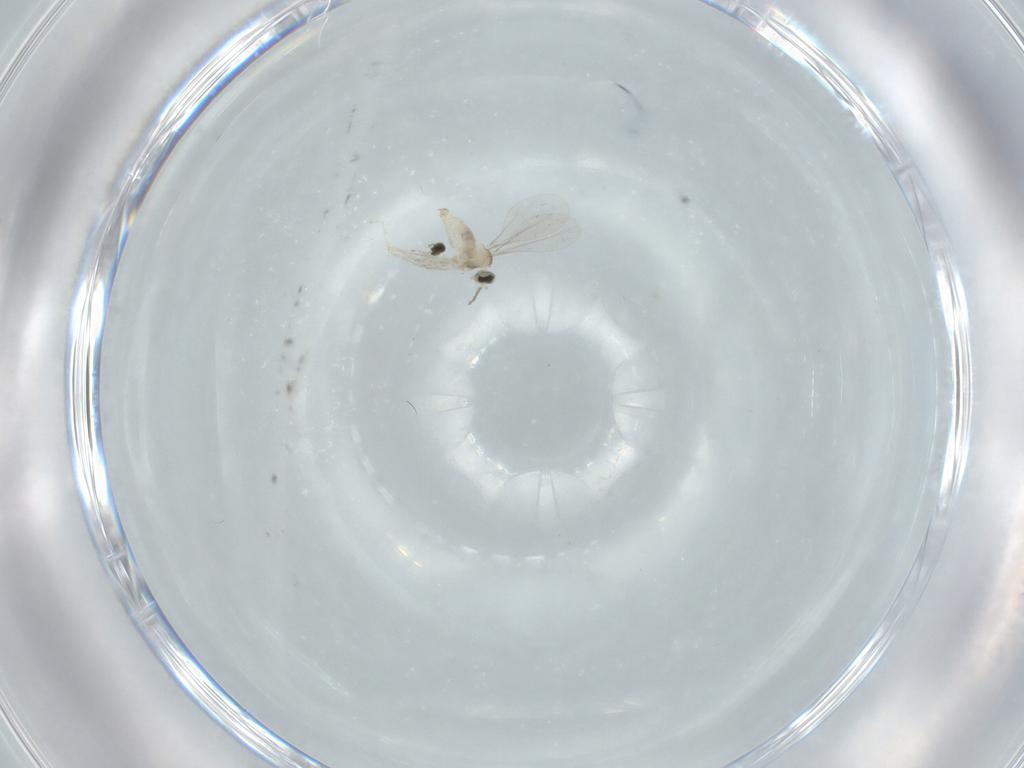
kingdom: Animalia
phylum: Arthropoda
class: Insecta
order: Diptera
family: Cecidomyiidae
